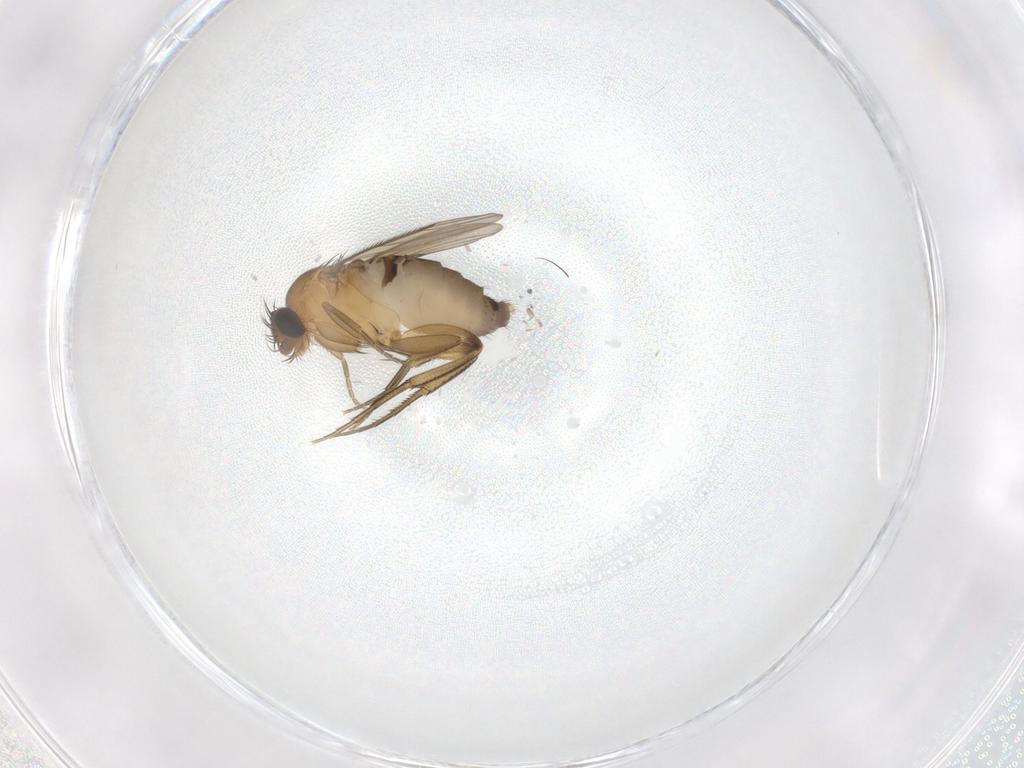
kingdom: Animalia
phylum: Arthropoda
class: Insecta
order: Diptera
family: Phoridae
